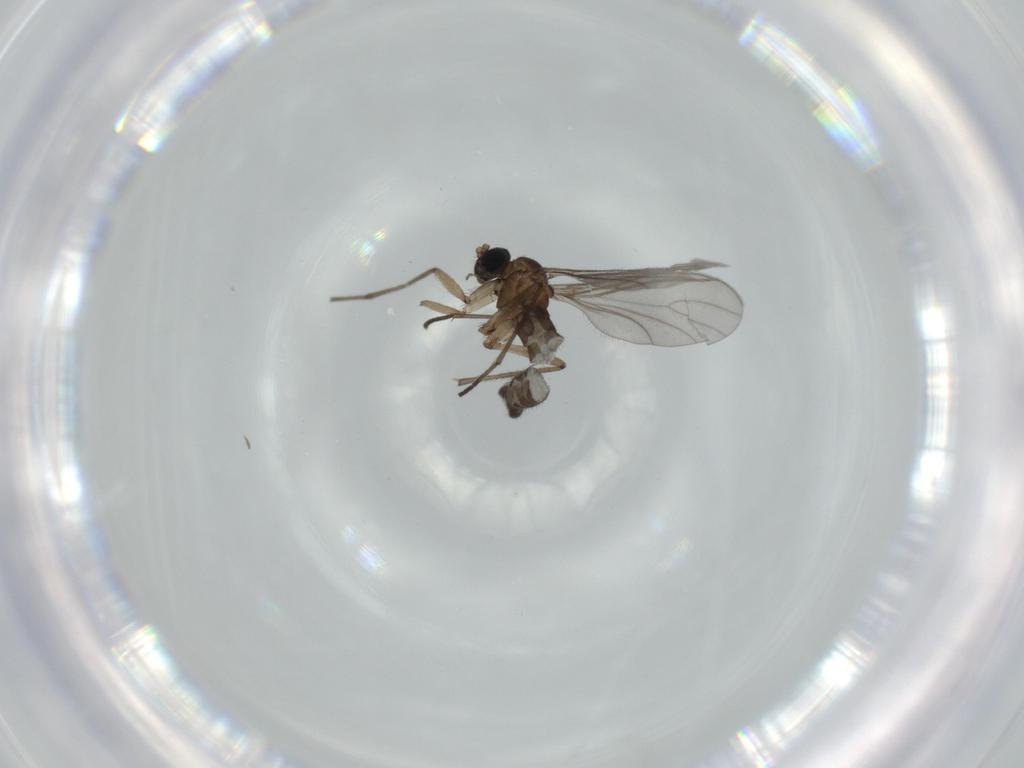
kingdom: Animalia
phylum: Arthropoda
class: Insecta
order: Diptera
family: Sciaridae
